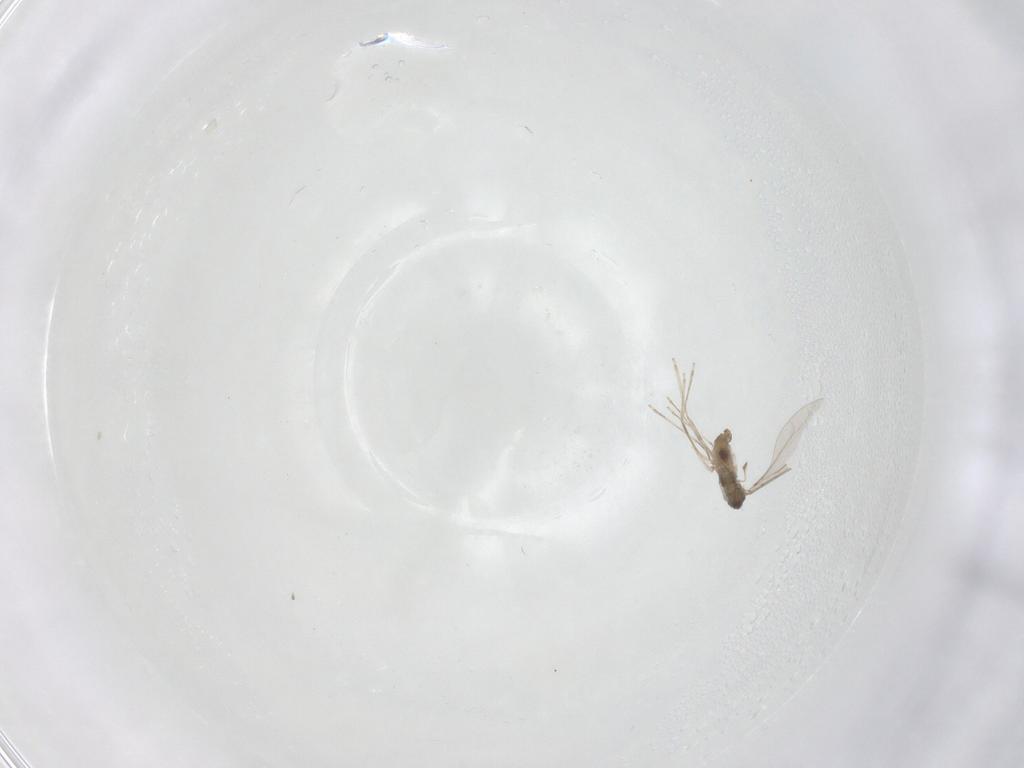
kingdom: Animalia
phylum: Arthropoda
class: Insecta
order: Diptera
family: Cecidomyiidae
